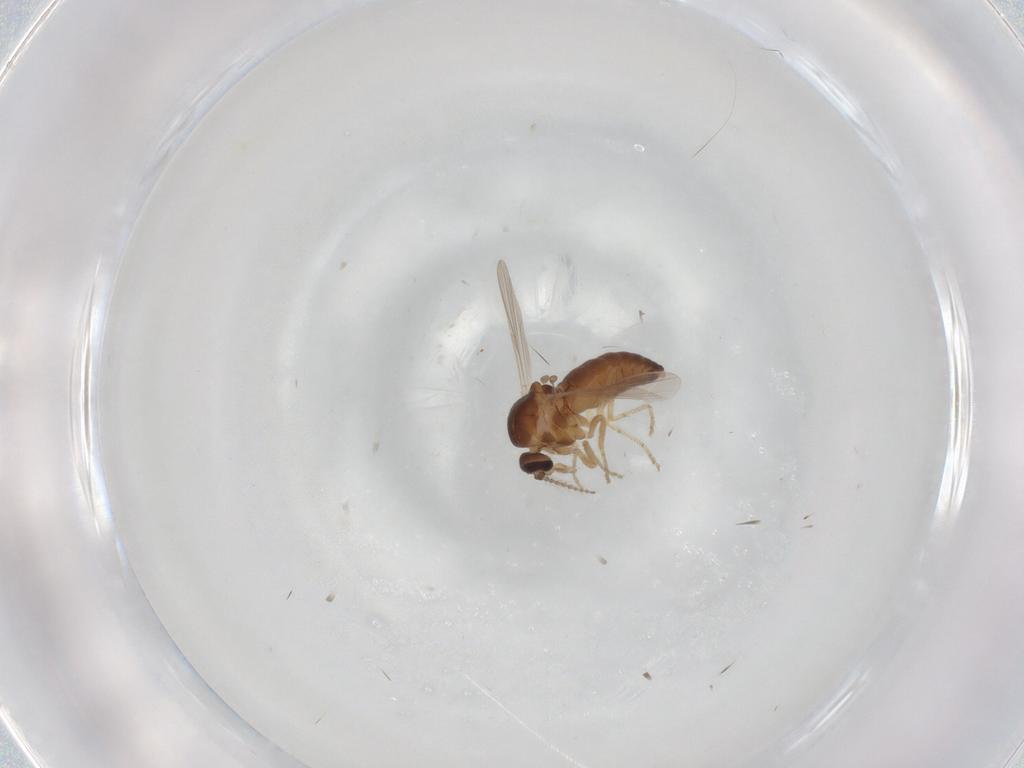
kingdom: Animalia
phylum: Arthropoda
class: Insecta
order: Diptera
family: Ceratopogonidae
